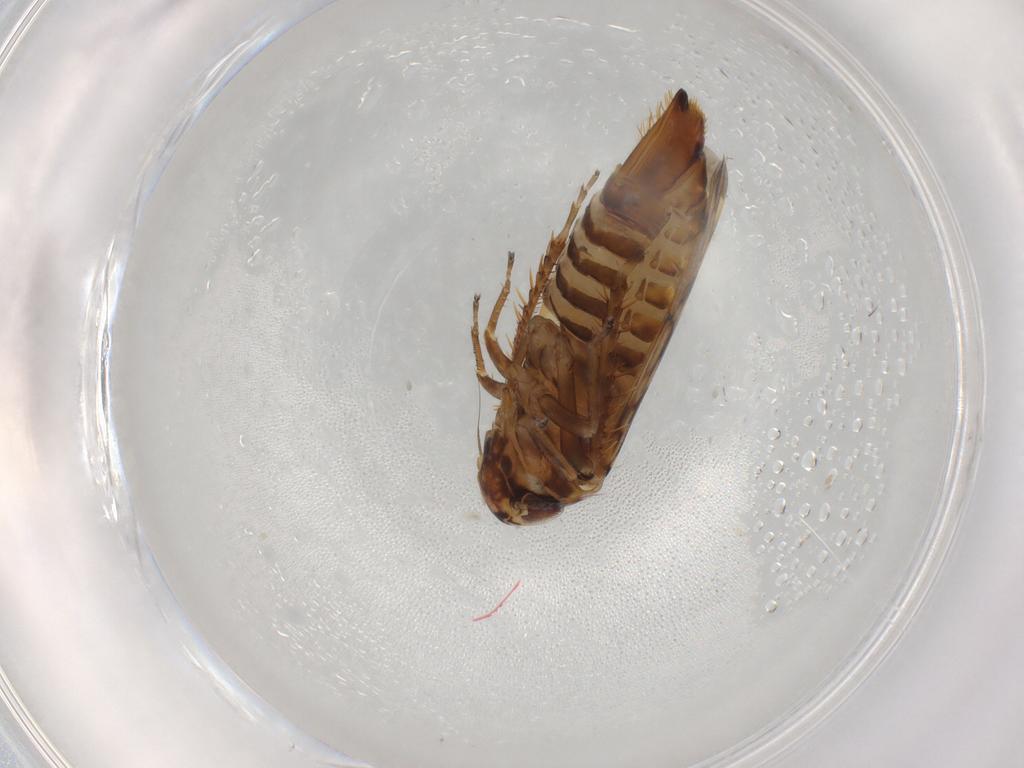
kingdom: Animalia
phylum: Arthropoda
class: Insecta
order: Hemiptera
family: Cicadellidae
